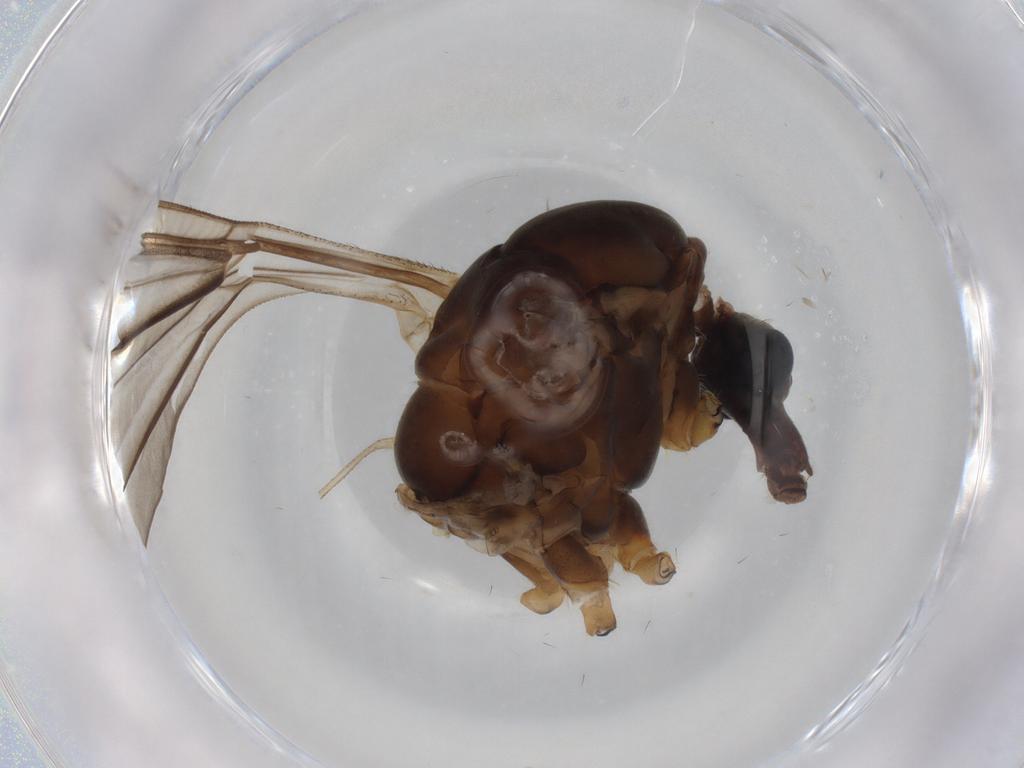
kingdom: Animalia
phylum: Arthropoda
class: Insecta
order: Diptera
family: Tipulidae
